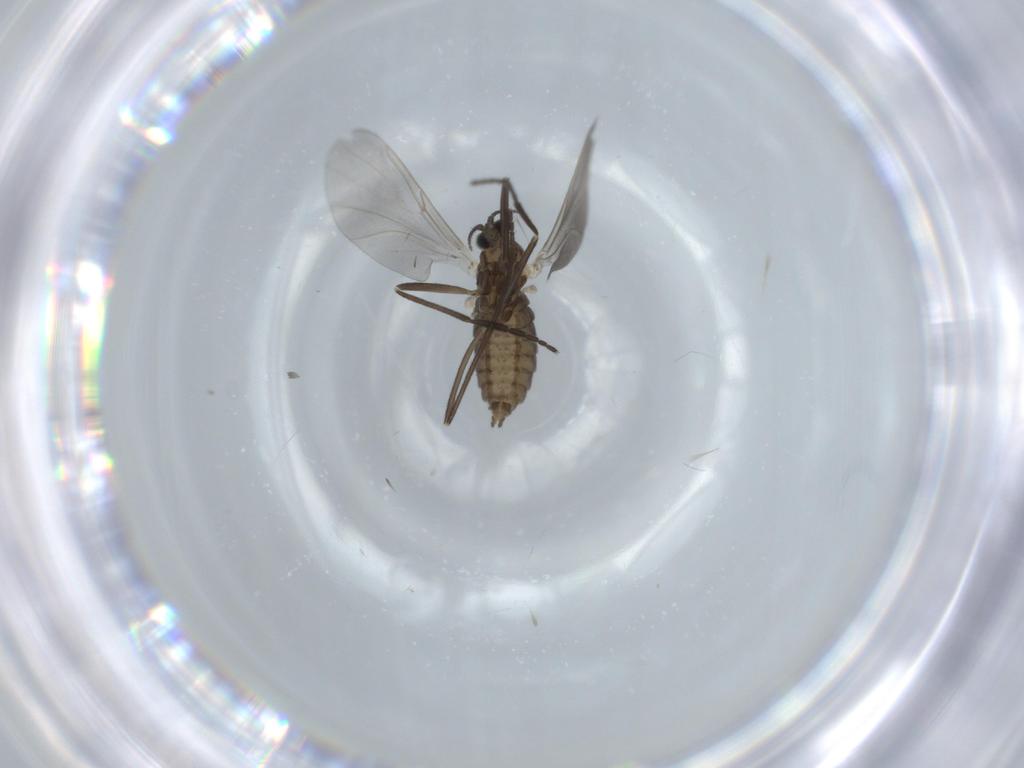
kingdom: Animalia
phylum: Arthropoda
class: Insecta
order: Diptera
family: Cecidomyiidae
